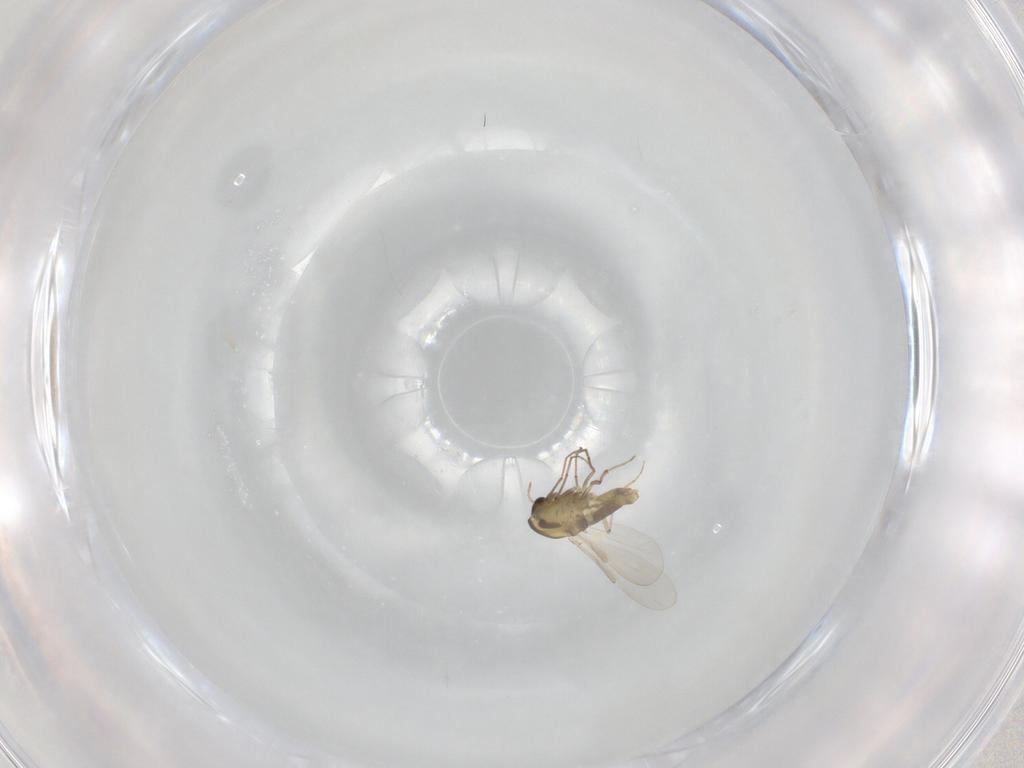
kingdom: Animalia
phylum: Arthropoda
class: Insecta
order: Diptera
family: Chironomidae
